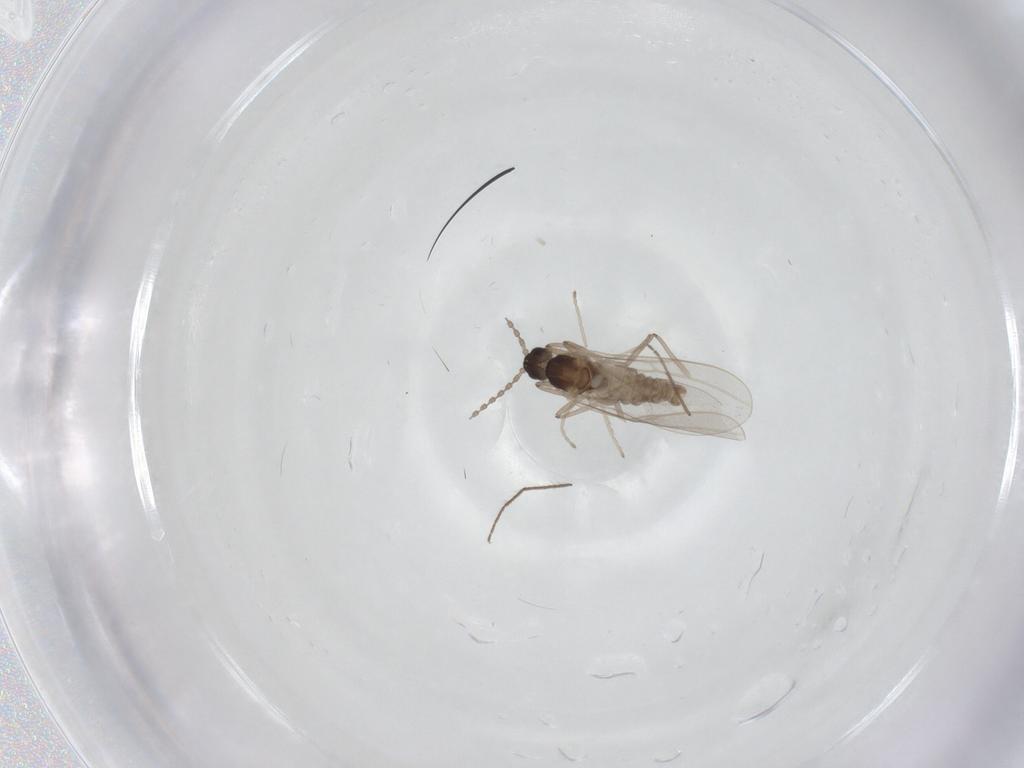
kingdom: Animalia
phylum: Arthropoda
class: Insecta
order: Diptera
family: Cecidomyiidae
